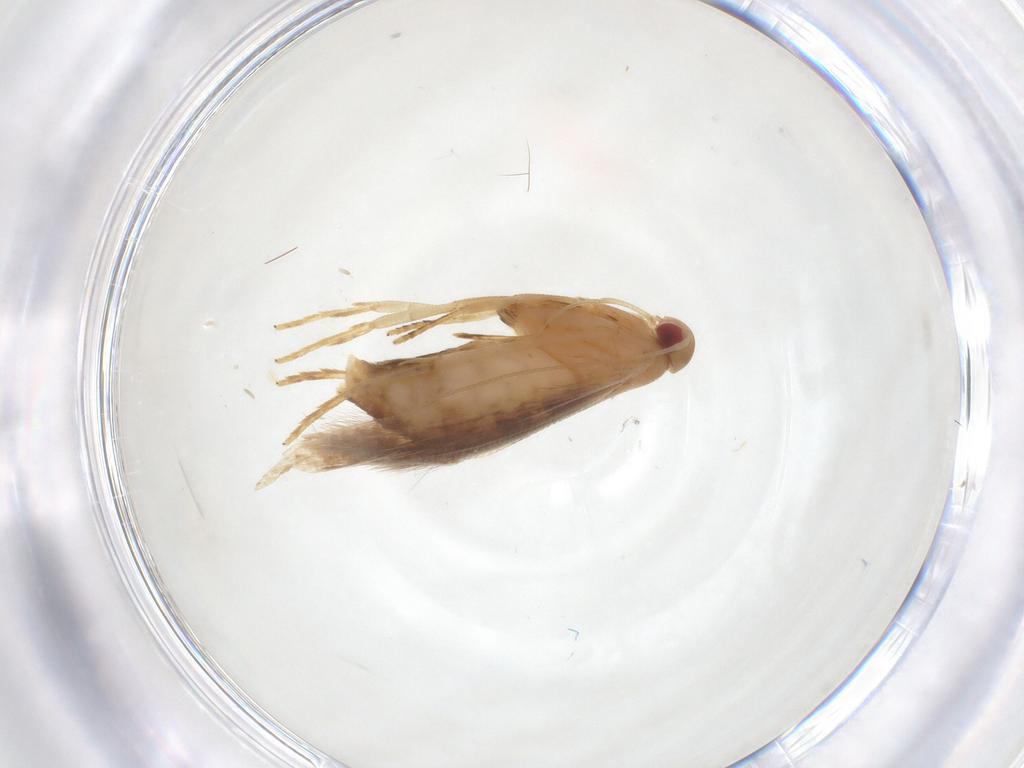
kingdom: Animalia
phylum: Arthropoda
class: Insecta
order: Lepidoptera
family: Cosmopterigidae
